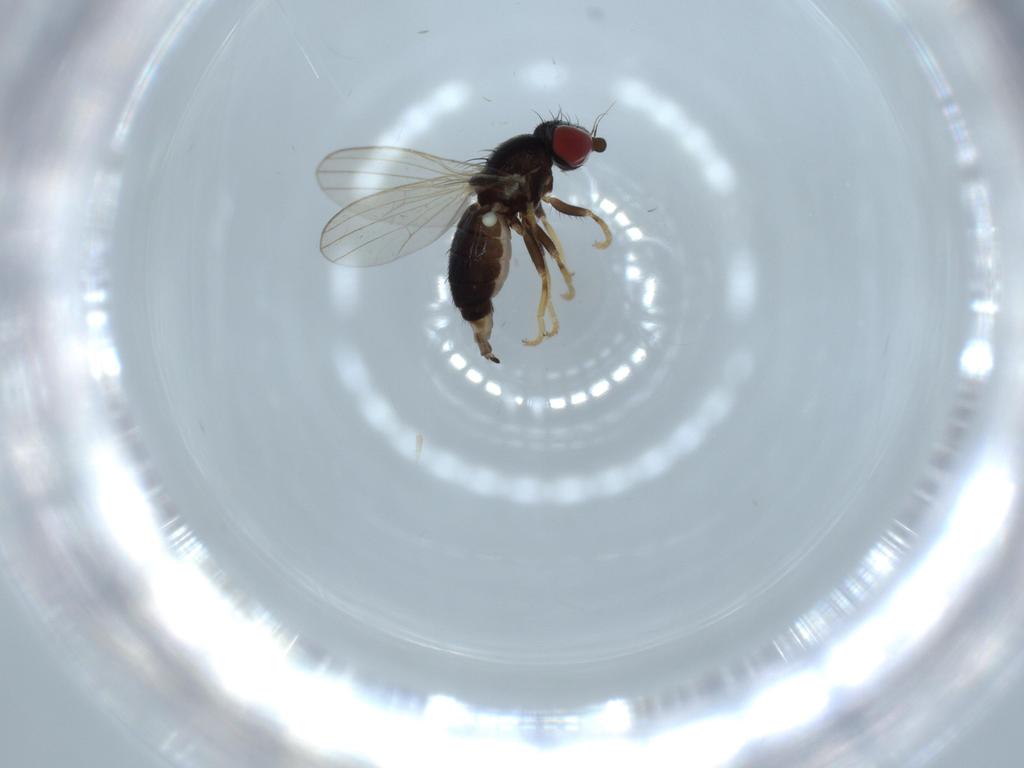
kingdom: Animalia
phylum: Arthropoda
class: Insecta
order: Diptera
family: Chamaemyiidae
